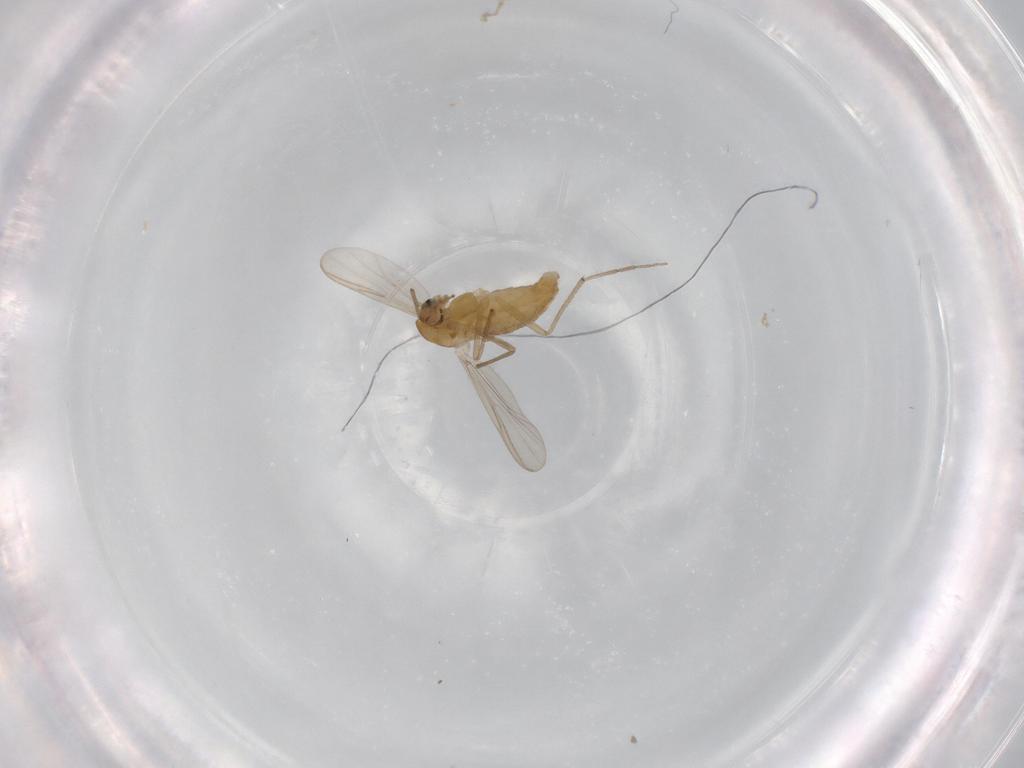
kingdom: Animalia
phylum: Arthropoda
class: Insecta
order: Diptera
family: Chironomidae
